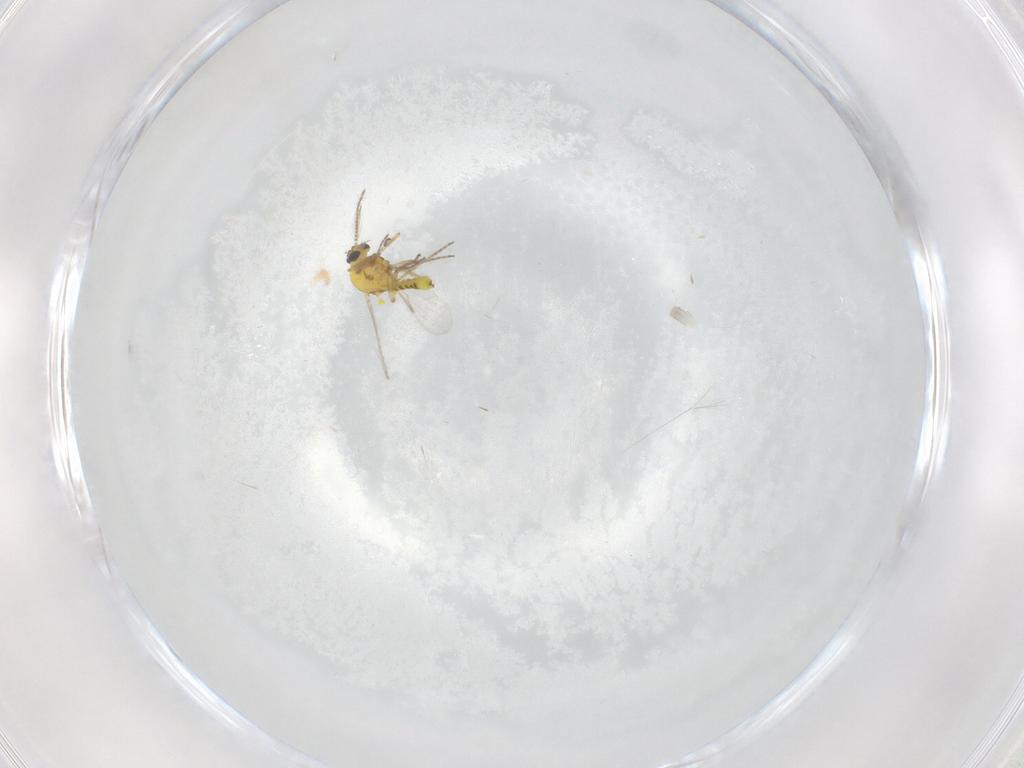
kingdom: Animalia
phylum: Arthropoda
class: Insecta
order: Diptera
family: Ceratopogonidae
